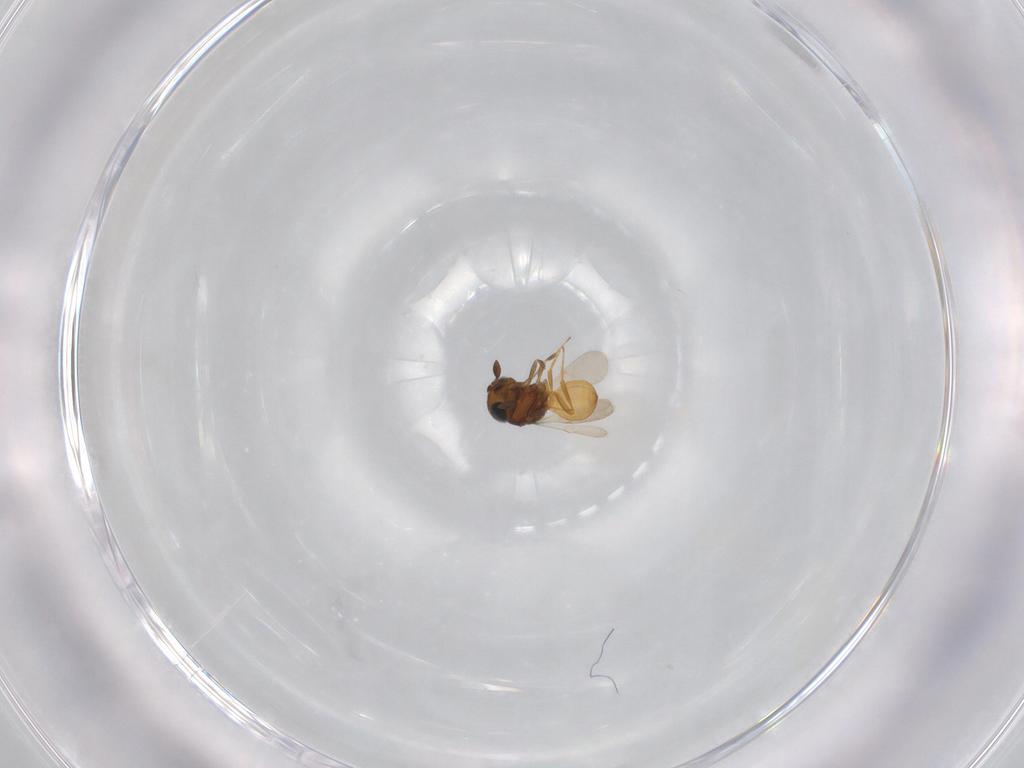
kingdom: Animalia
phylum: Arthropoda
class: Insecta
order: Hymenoptera
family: Scelionidae
